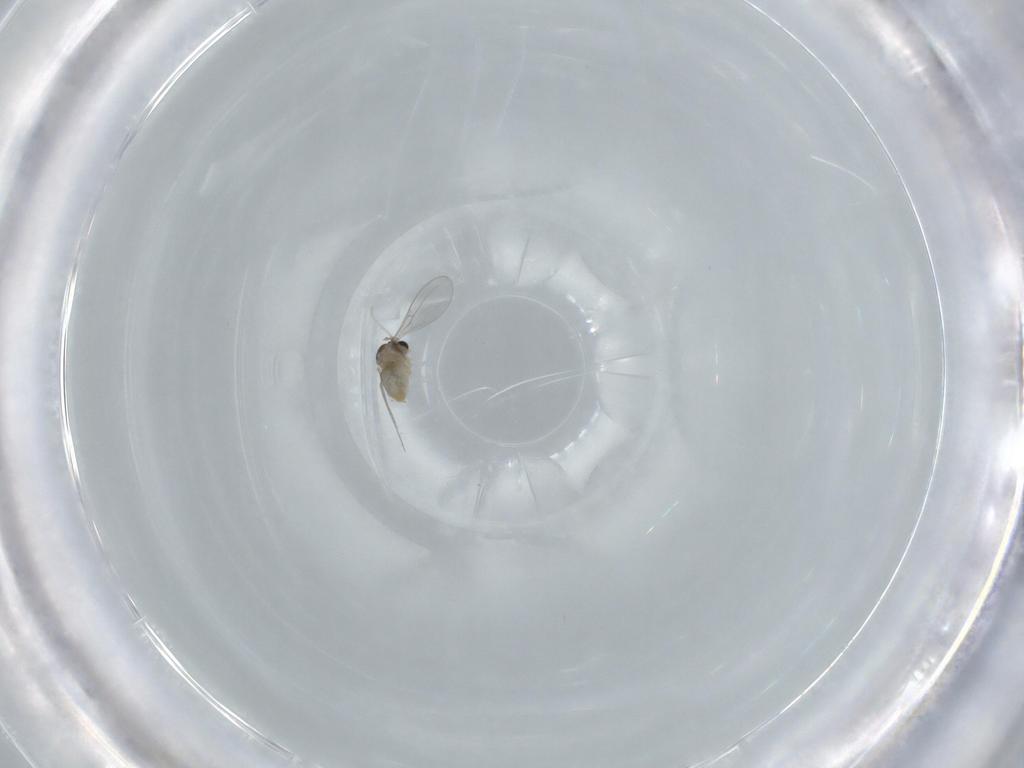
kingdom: Animalia
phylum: Arthropoda
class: Insecta
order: Diptera
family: Cecidomyiidae
